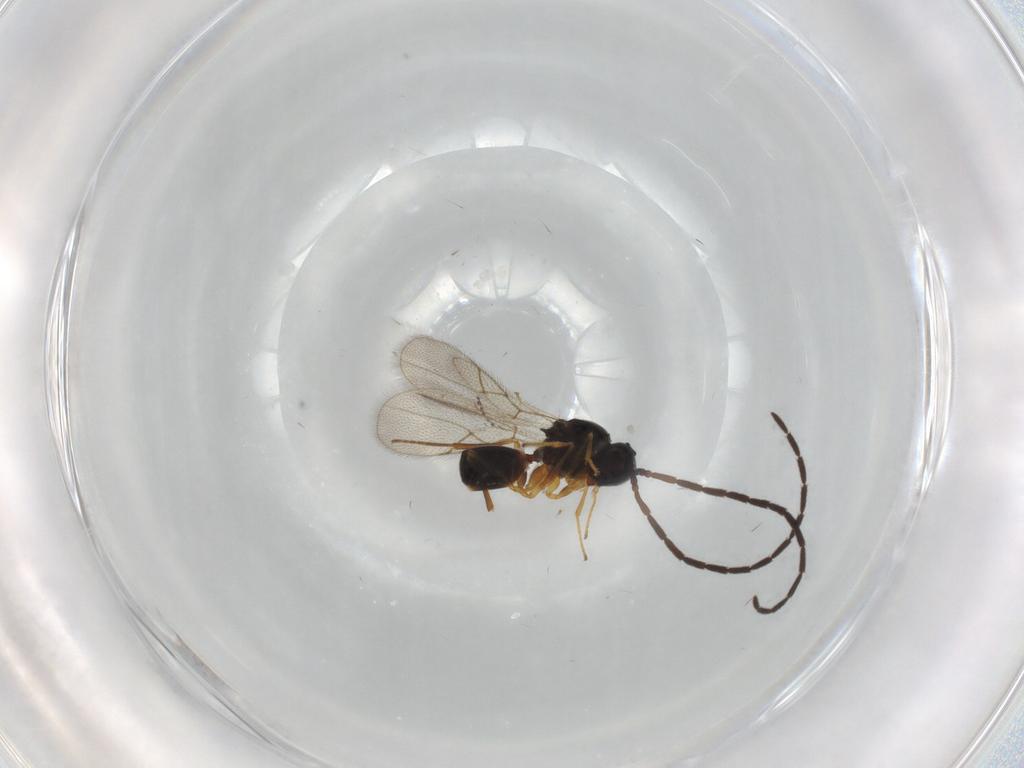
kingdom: Animalia
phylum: Arthropoda
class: Insecta
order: Hymenoptera
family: Figitidae
